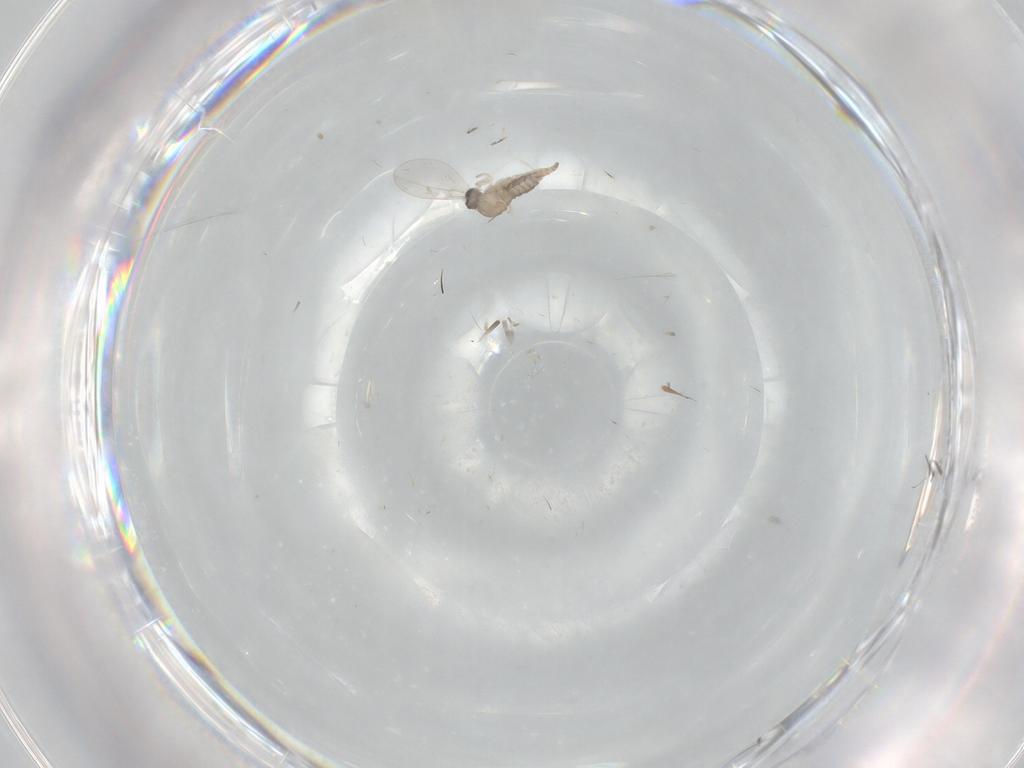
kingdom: Animalia
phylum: Arthropoda
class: Insecta
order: Diptera
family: Cecidomyiidae
